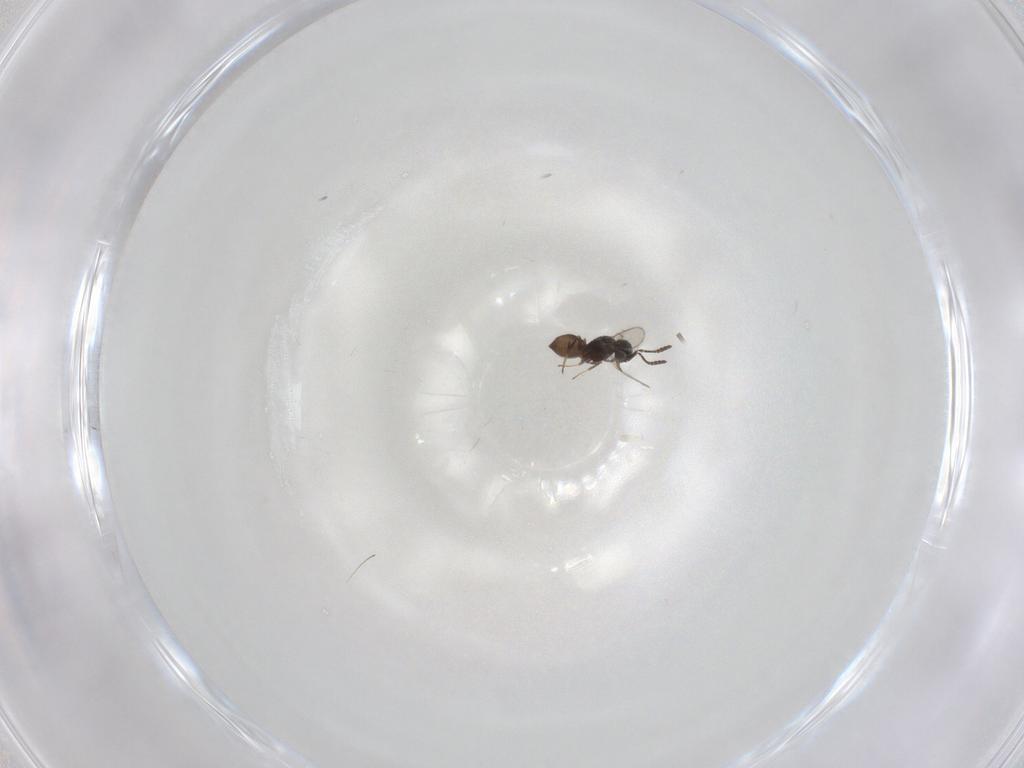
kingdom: Animalia
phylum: Arthropoda
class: Insecta
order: Hymenoptera
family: Scelionidae
